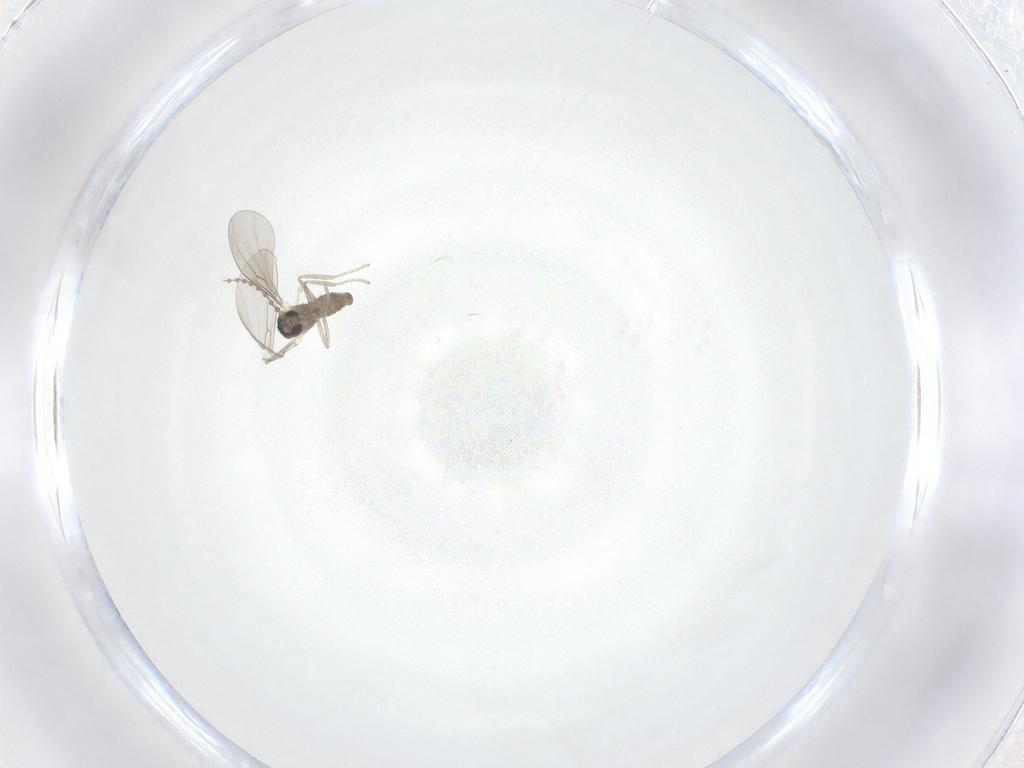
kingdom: Animalia
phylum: Arthropoda
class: Insecta
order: Diptera
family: Cecidomyiidae
